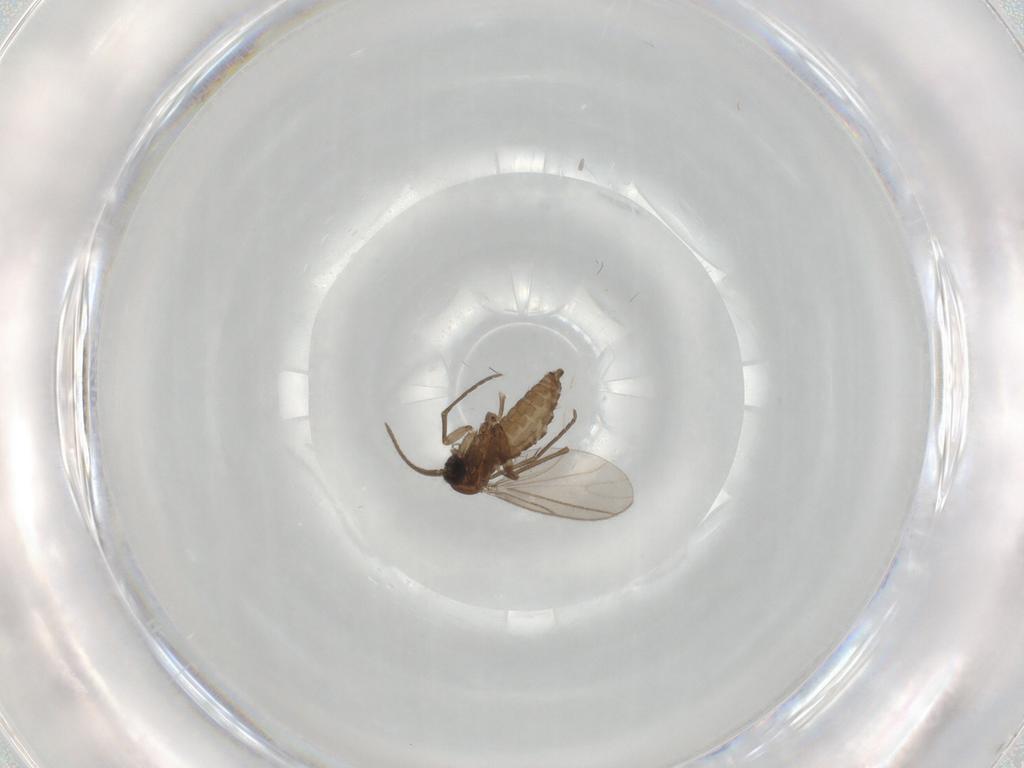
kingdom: Animalia
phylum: Arthropoda
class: Insecta
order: Diptera
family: Sciaridae
